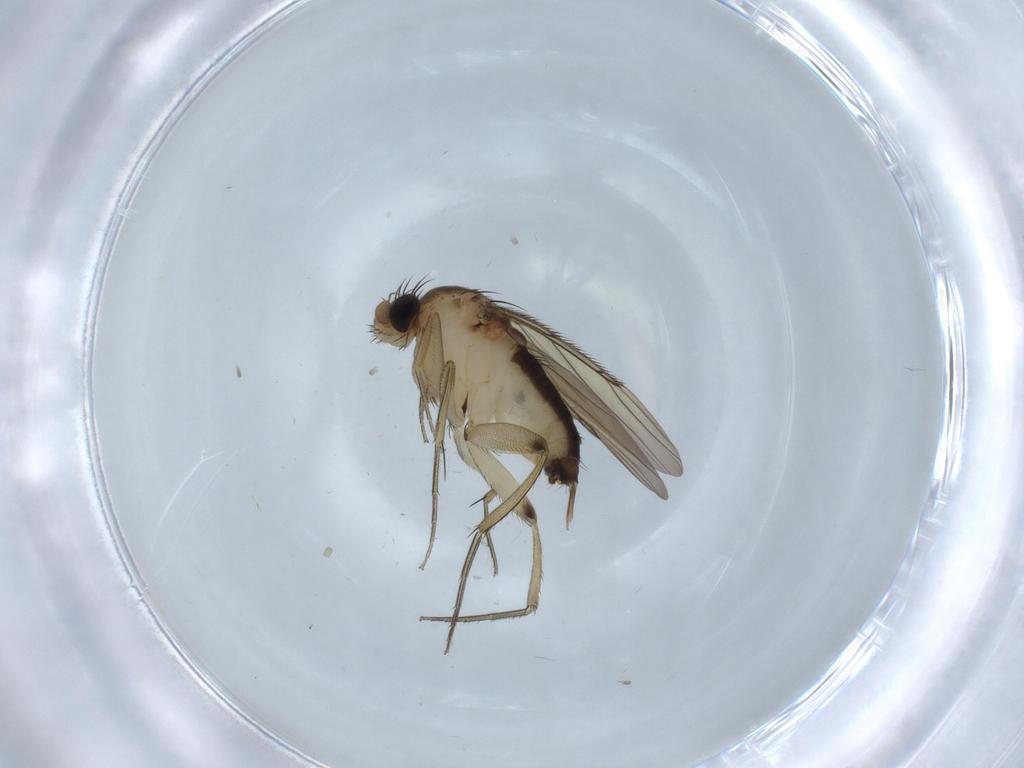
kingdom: Animalia
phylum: Arthropoda
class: Insecta
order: Diptera
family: Phoridae
